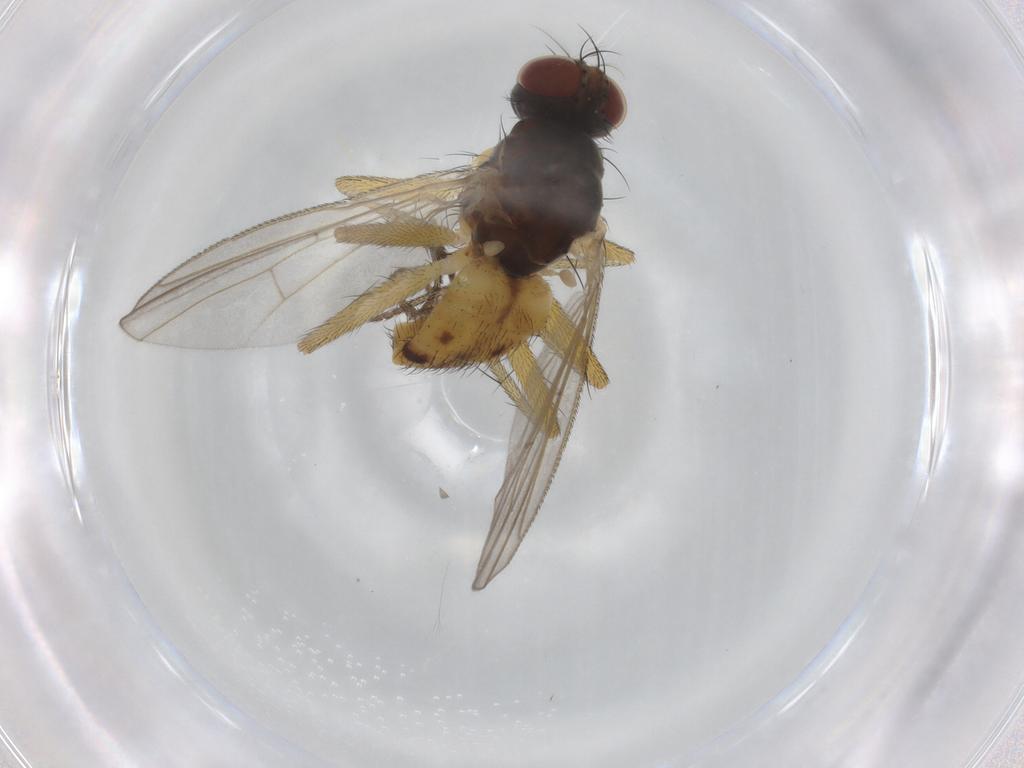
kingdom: Animalia
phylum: Arthropoda
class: Insecta
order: Diptera
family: Muscidae
